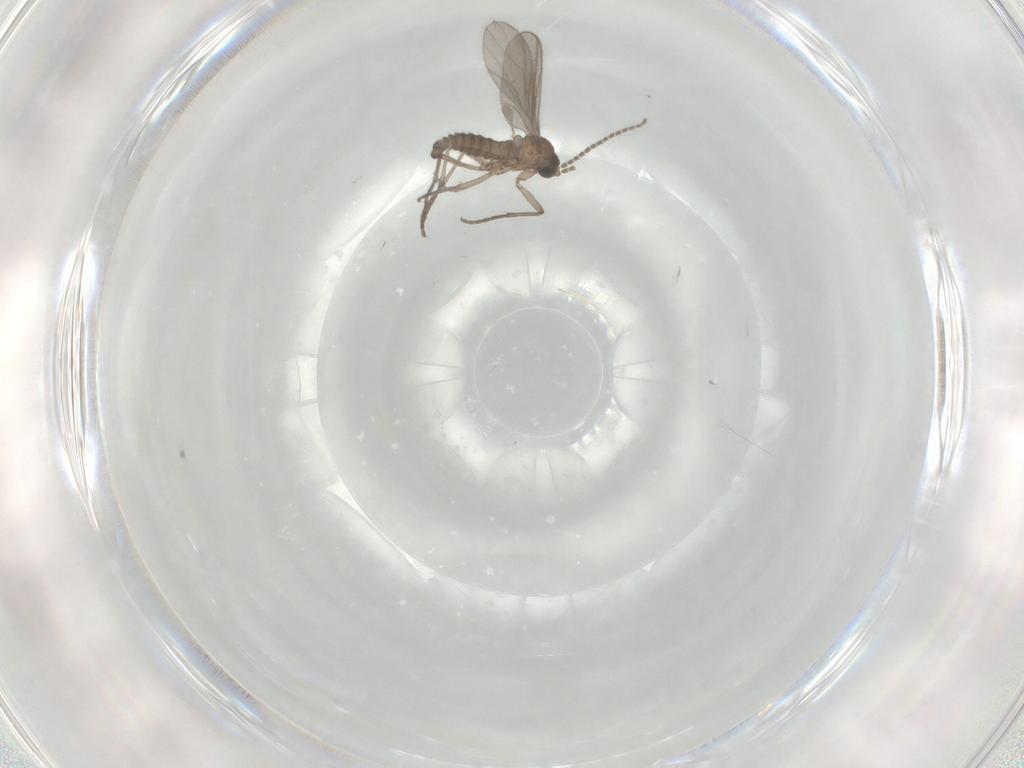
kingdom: Animalia
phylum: Arthropoda
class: Insecta
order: Diptera
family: Sciaridae
